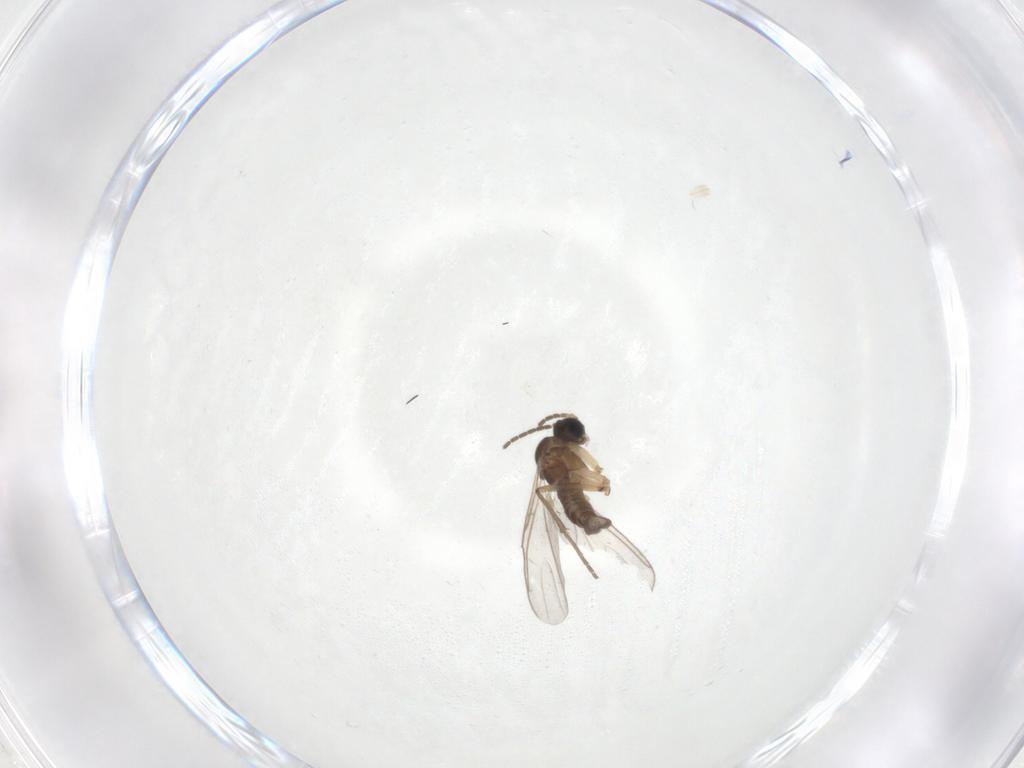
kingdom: Animalia
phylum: Arthropoda
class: Insecta
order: Diptera
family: Sciaridae
